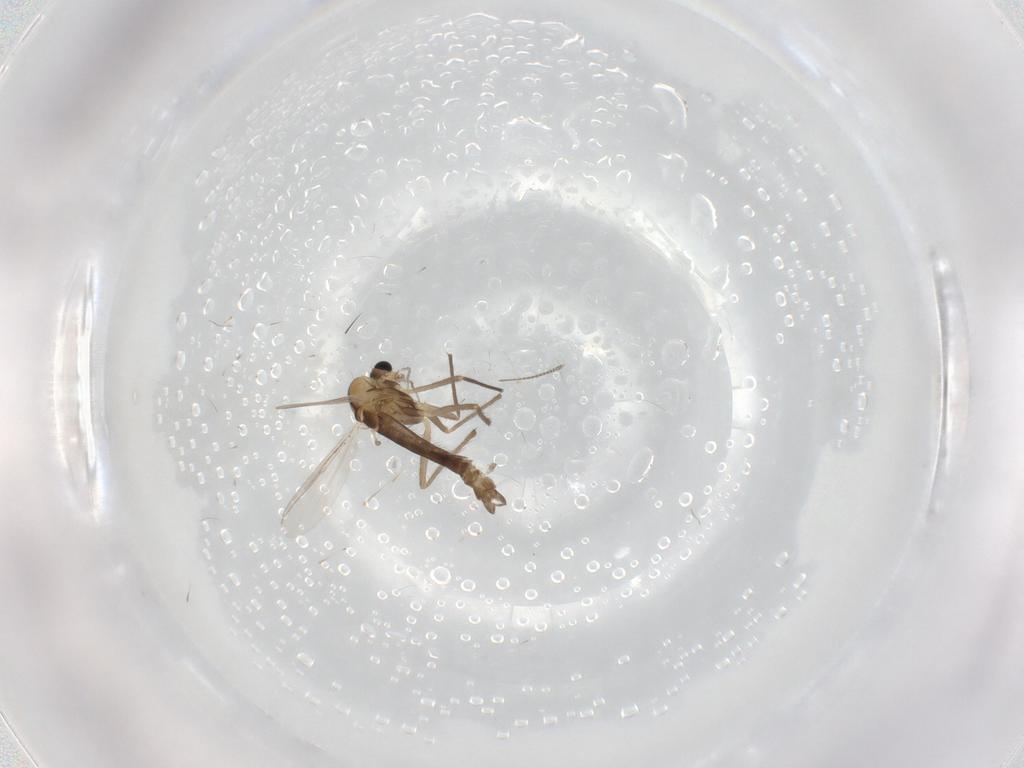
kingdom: Animalia
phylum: Arthropoda
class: Insecta
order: Diptera
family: Chironomidae
